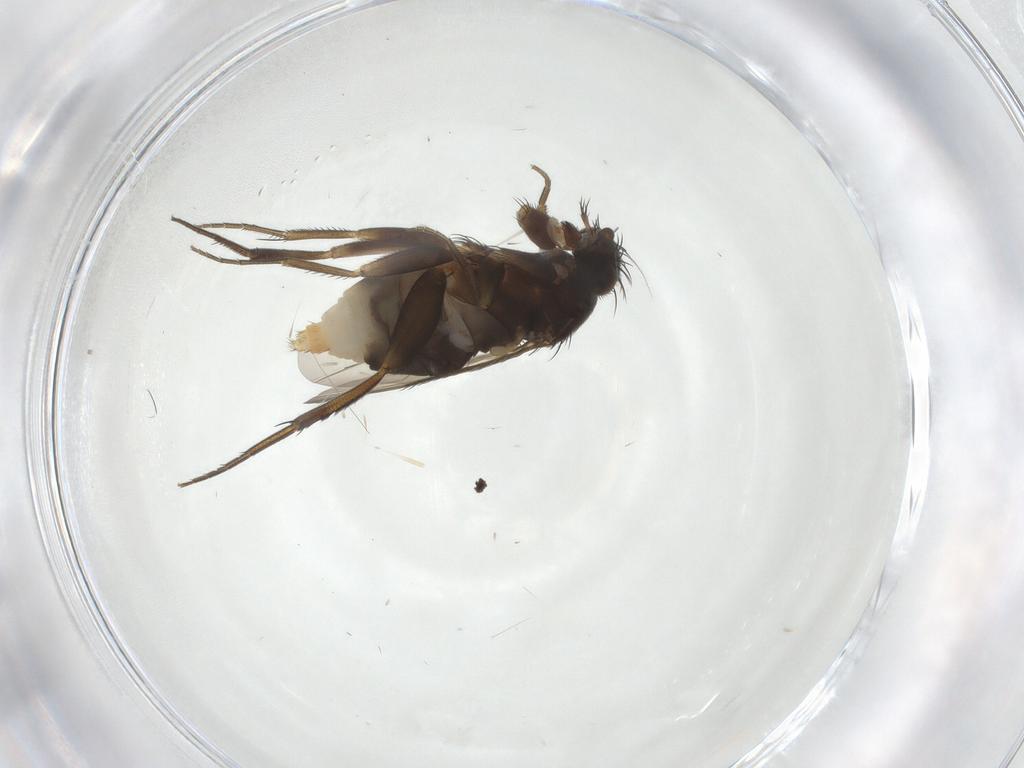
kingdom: Animalia
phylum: Arthropoda
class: Insecta
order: Diptera
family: Phoridae
